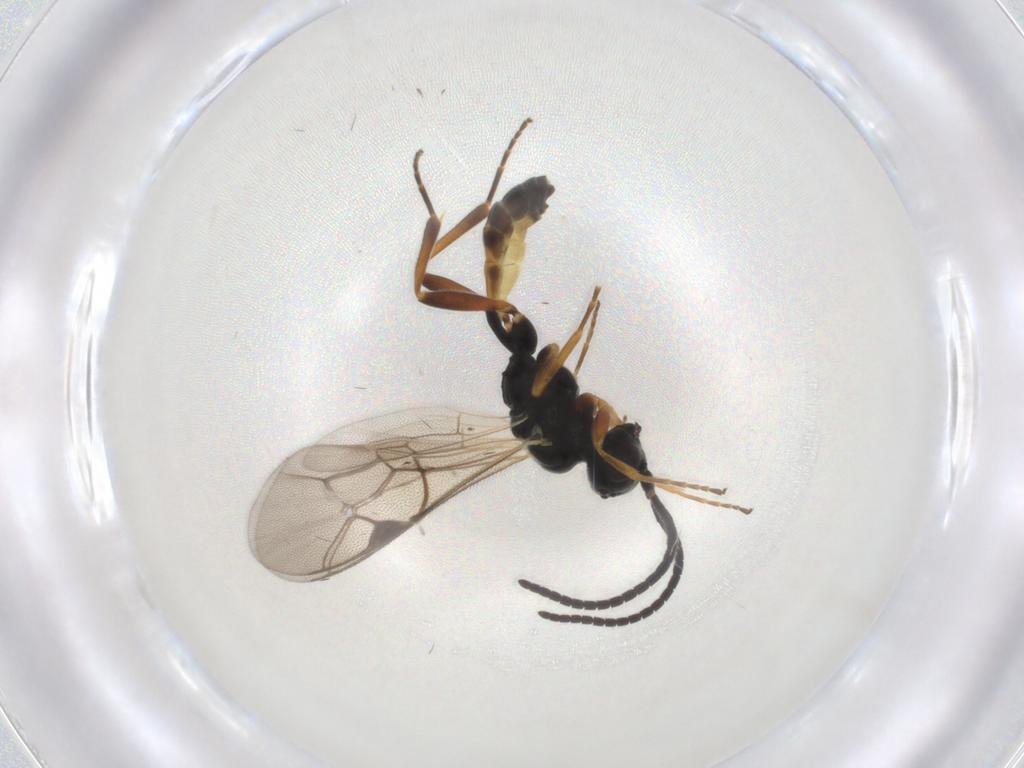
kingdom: Animalia
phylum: Arthropoda
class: Insecta
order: Hymenoptera
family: Ichneumonidae
